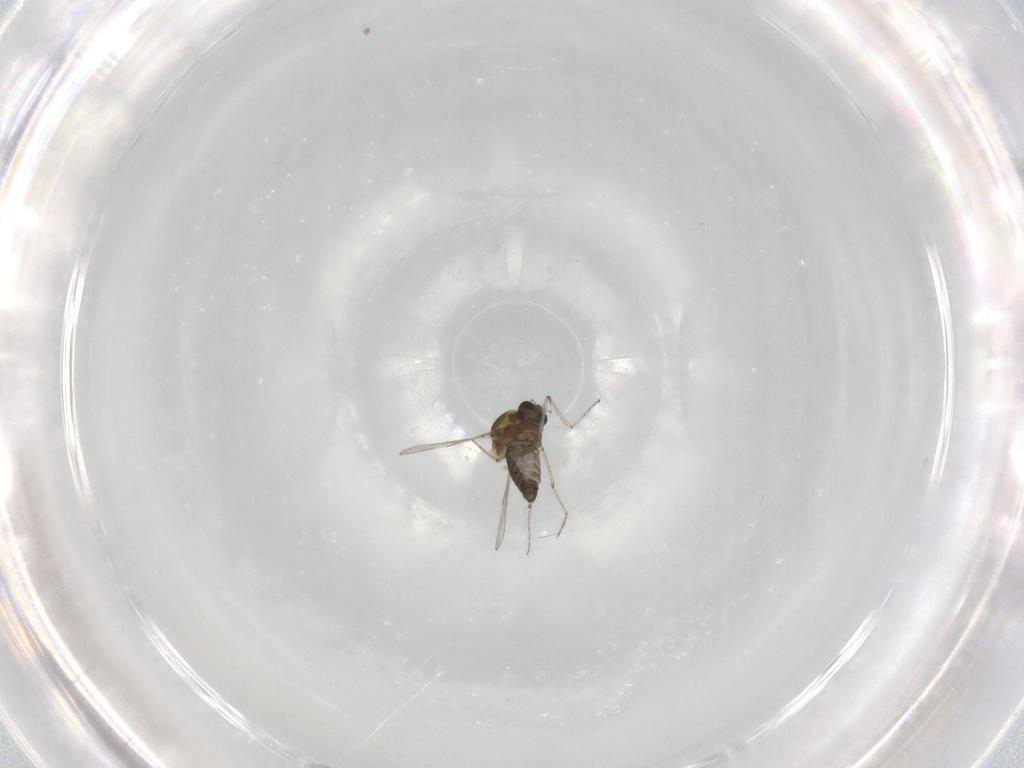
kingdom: Animalia
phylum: Arthropoda
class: Insecta
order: Diptera
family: Ceratopogonidae
